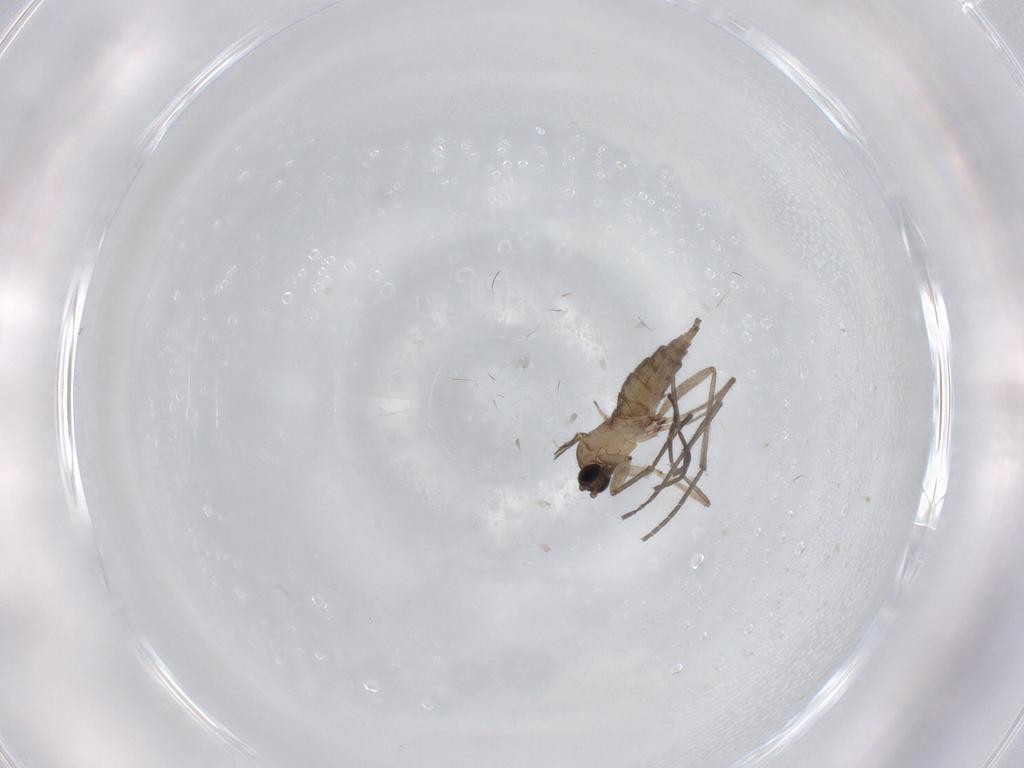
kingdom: Animalia
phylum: Arthropoda
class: Insecta
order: Diptera
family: Sciaridae
